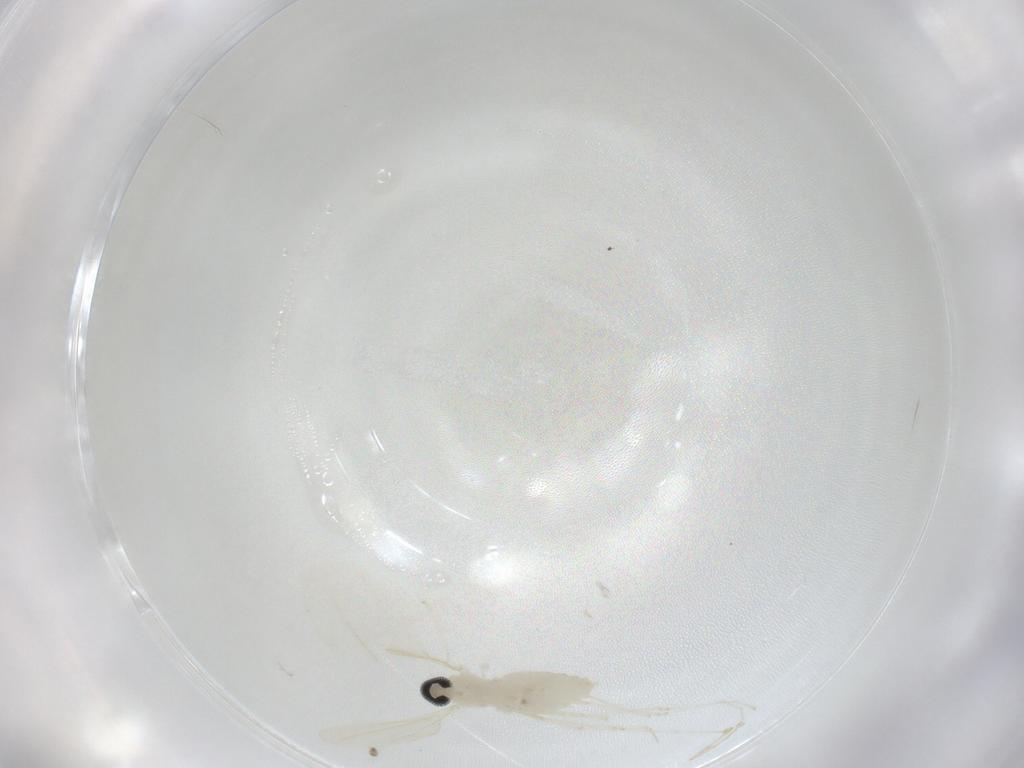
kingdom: Animalia
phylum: Arthropoda
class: Insecta
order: Diptera
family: Cecidomyiidae
